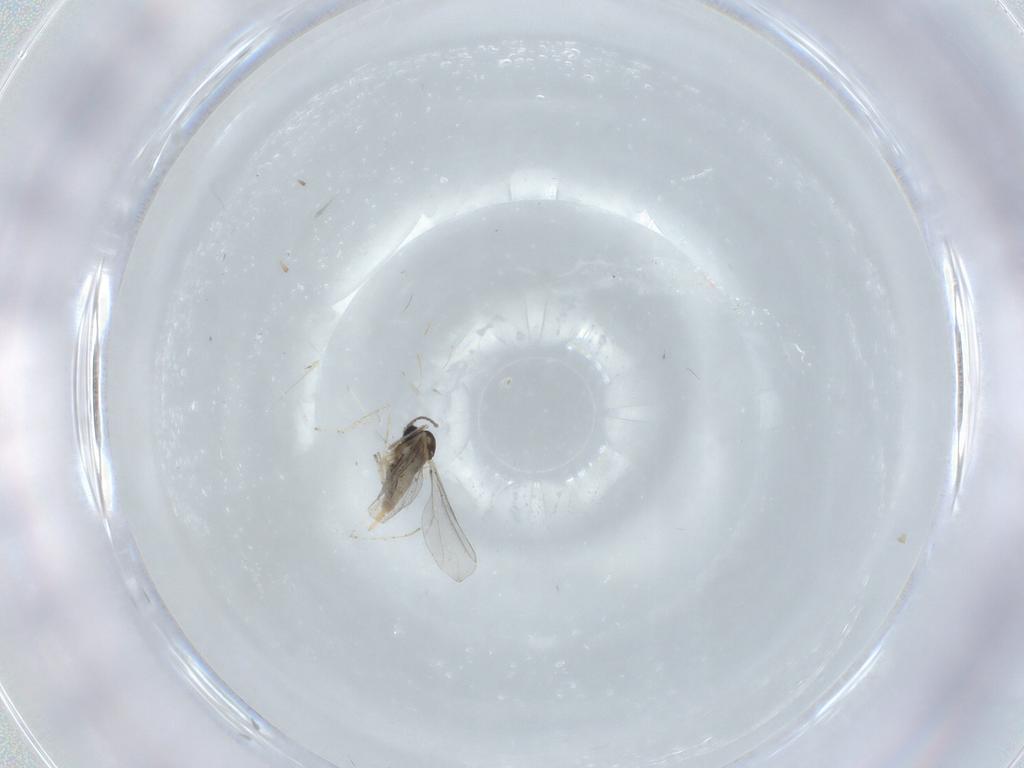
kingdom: Animalia
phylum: Arthropoda
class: Insecta
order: Diptera
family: Cecidomyiidae
